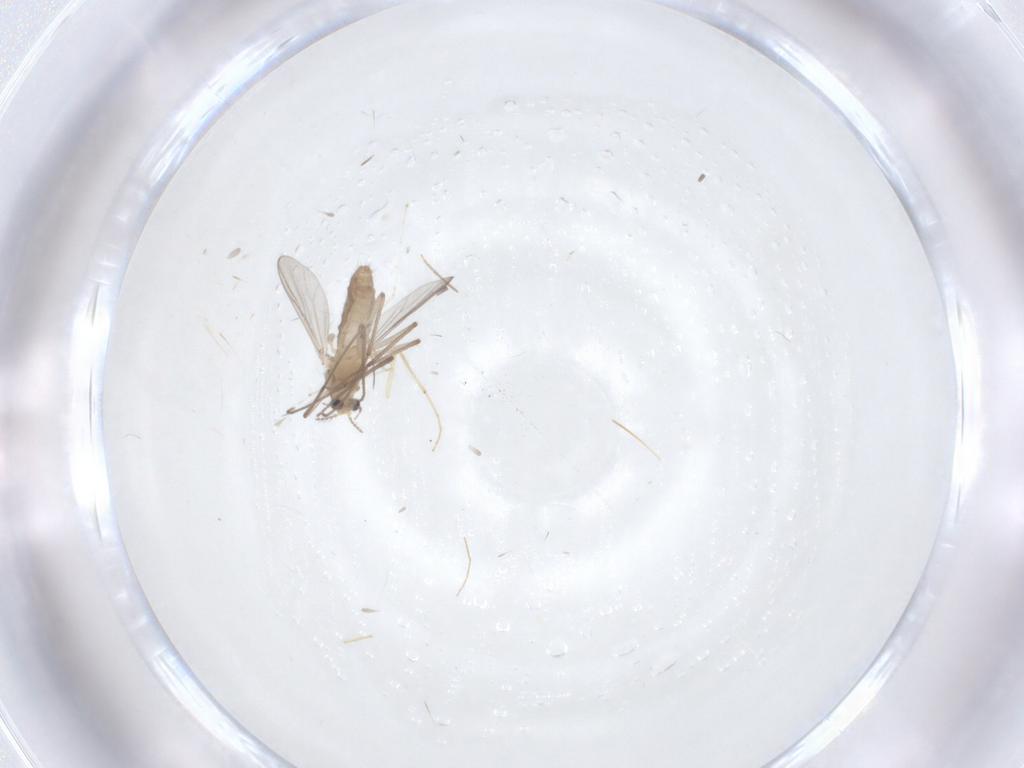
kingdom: Animalia
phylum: Arthropoda
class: Insecta
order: Diptera
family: Chironomidae
